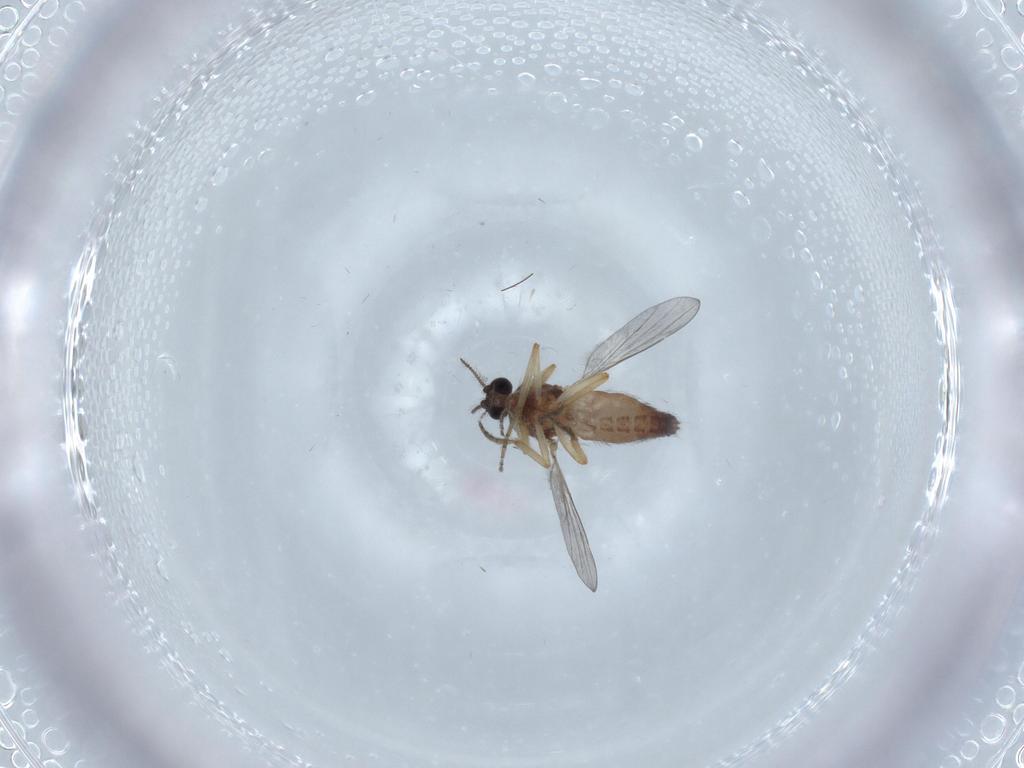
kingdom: Animalia
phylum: Arthropoda
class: Insecta
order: Diptera
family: Ceratopogonidae
